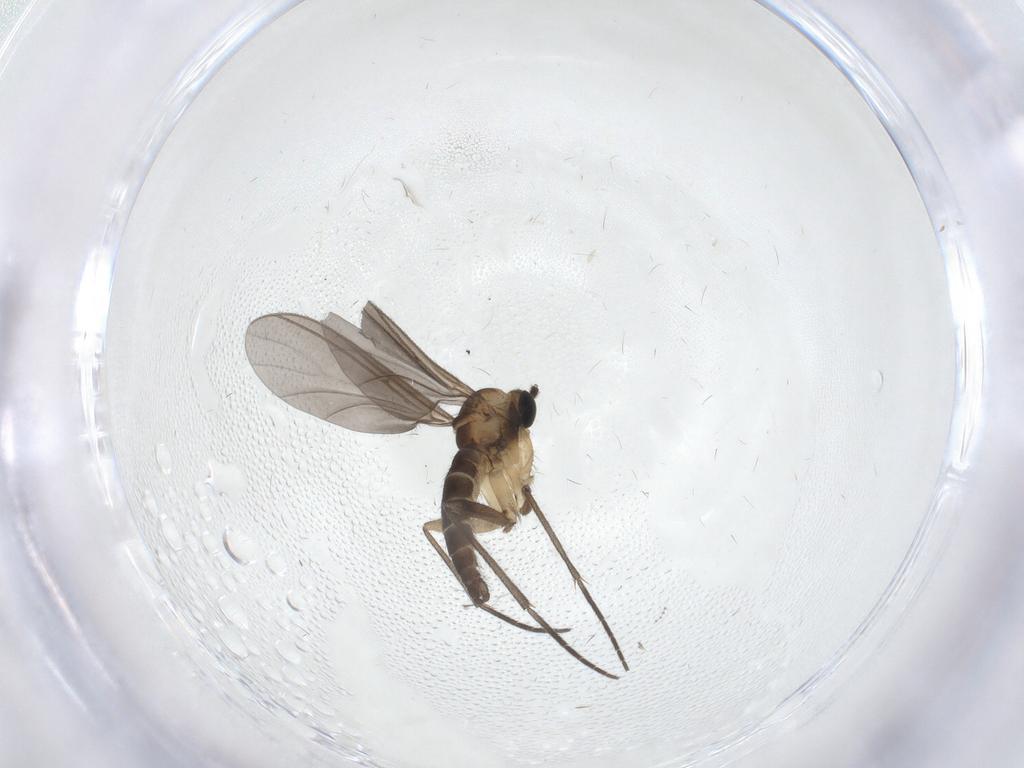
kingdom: Animalia
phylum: Arthropoda
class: Insecta
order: Diptera
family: Sciaridae
